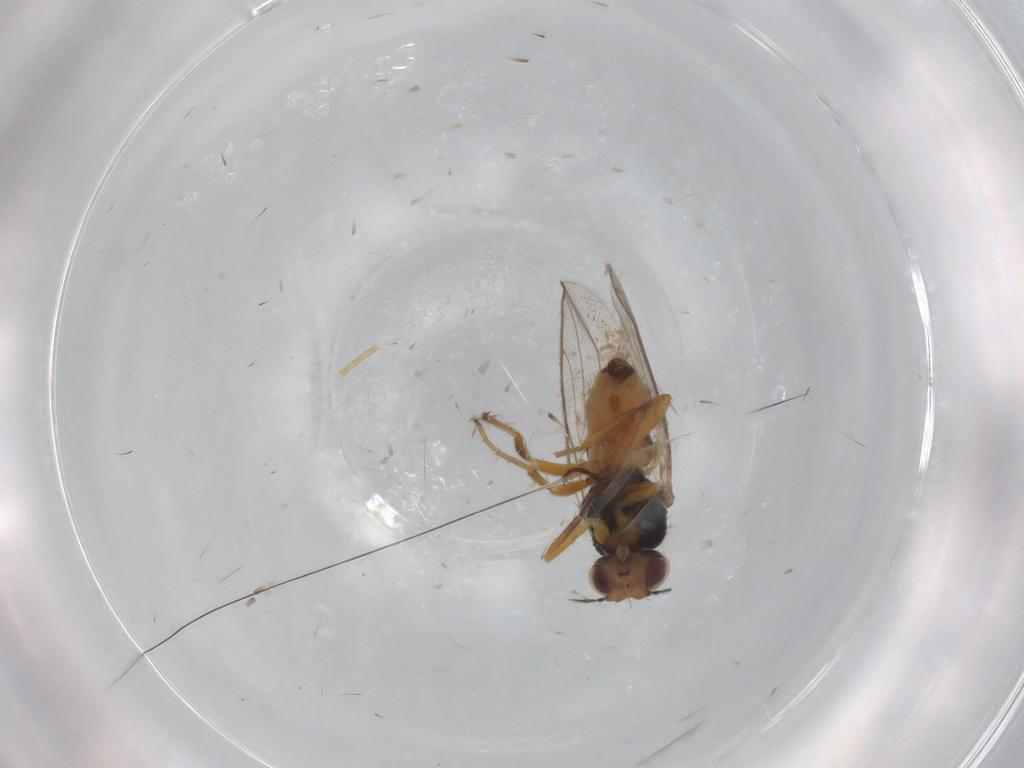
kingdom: Animalia
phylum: Arthropoda
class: Insecta
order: Diptera
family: Chloropidae
